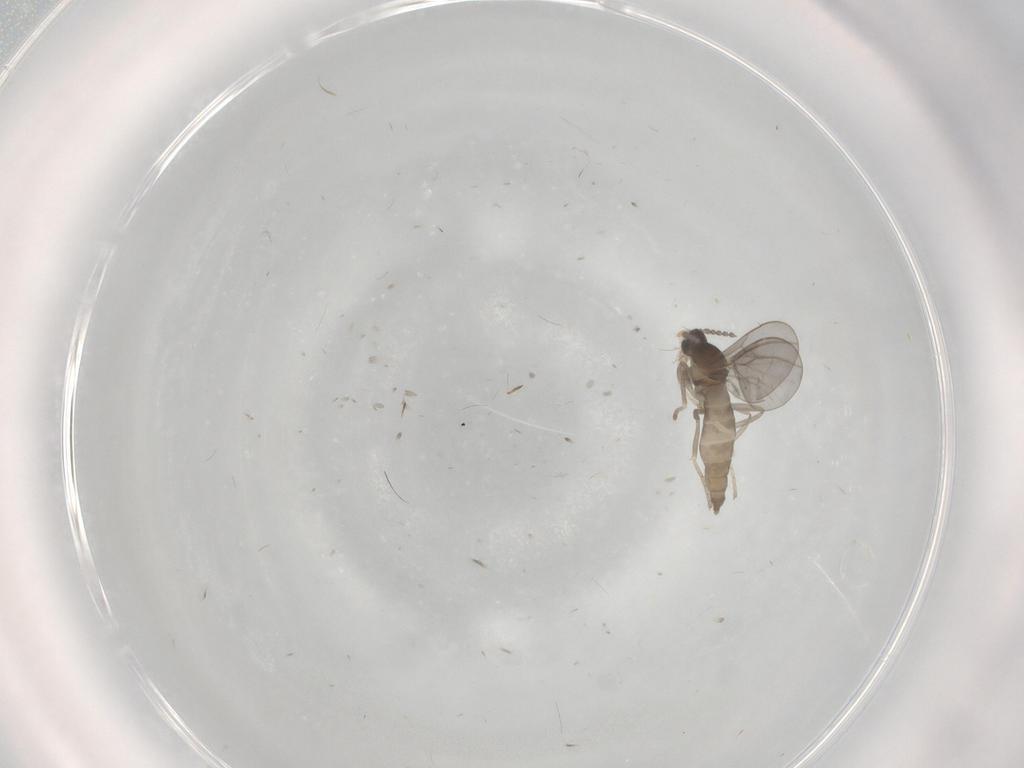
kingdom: Animalia
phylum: Arthropoda
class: Insecta
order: Diptera
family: Cecidomyiidae
